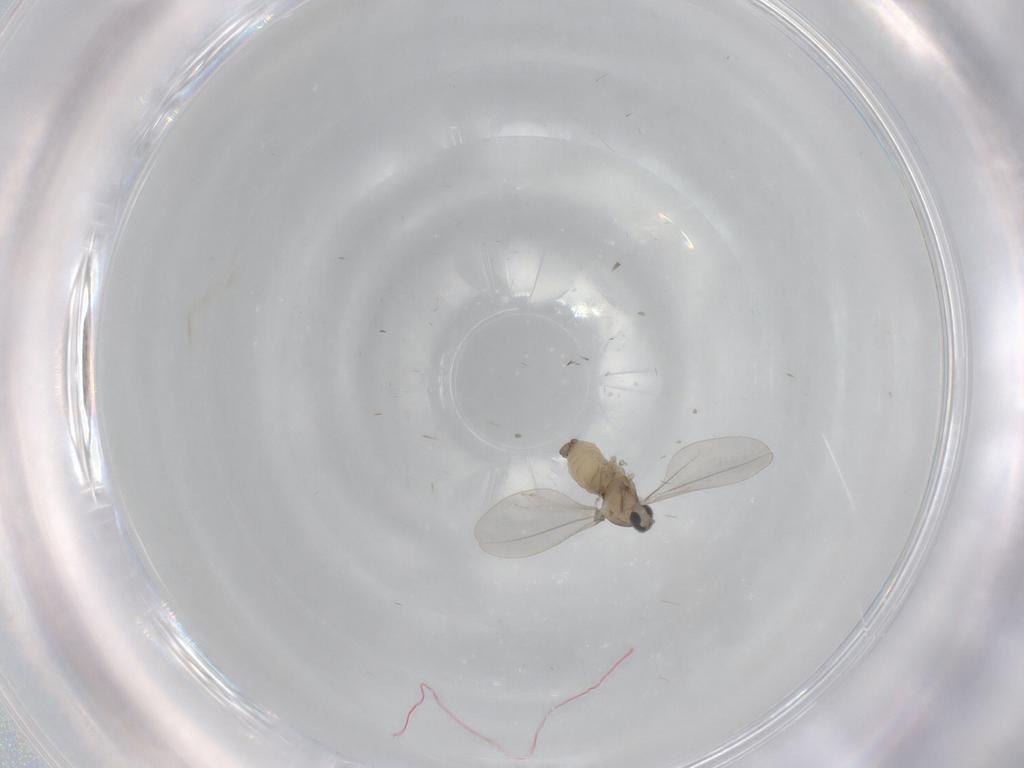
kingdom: Animalia
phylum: Arthropoda
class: Insecta
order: Diptera
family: Cecidomyiidae
